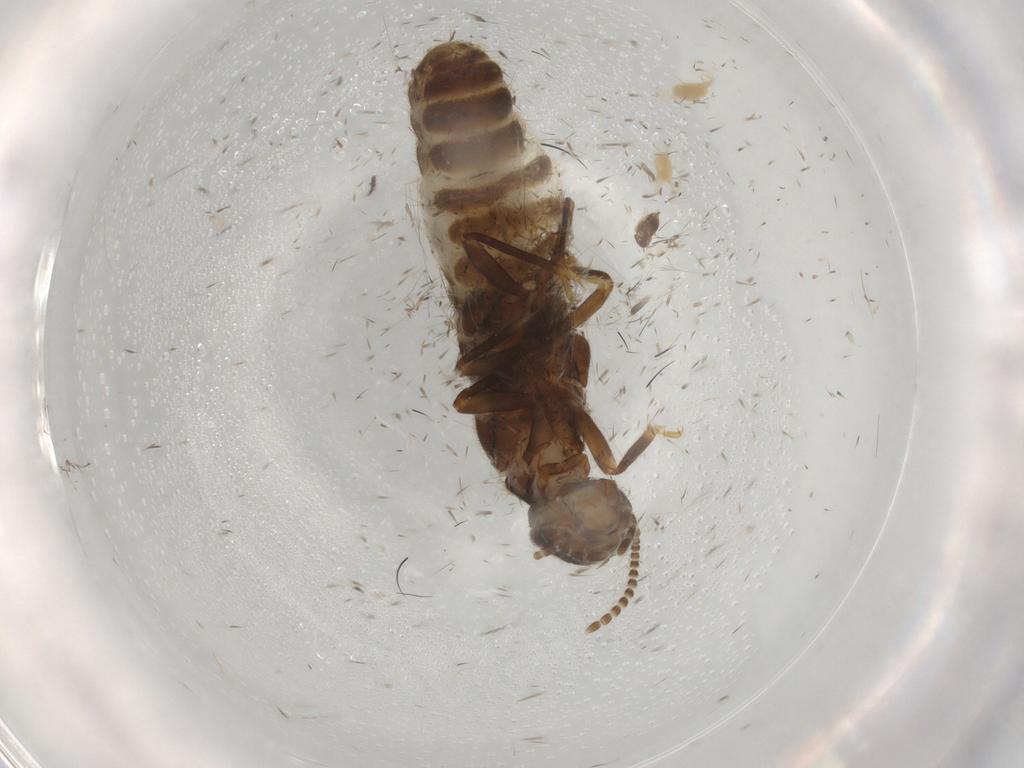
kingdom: Animalia
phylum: Arthropoda
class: Insecta
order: Blattodea
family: Termitidae
